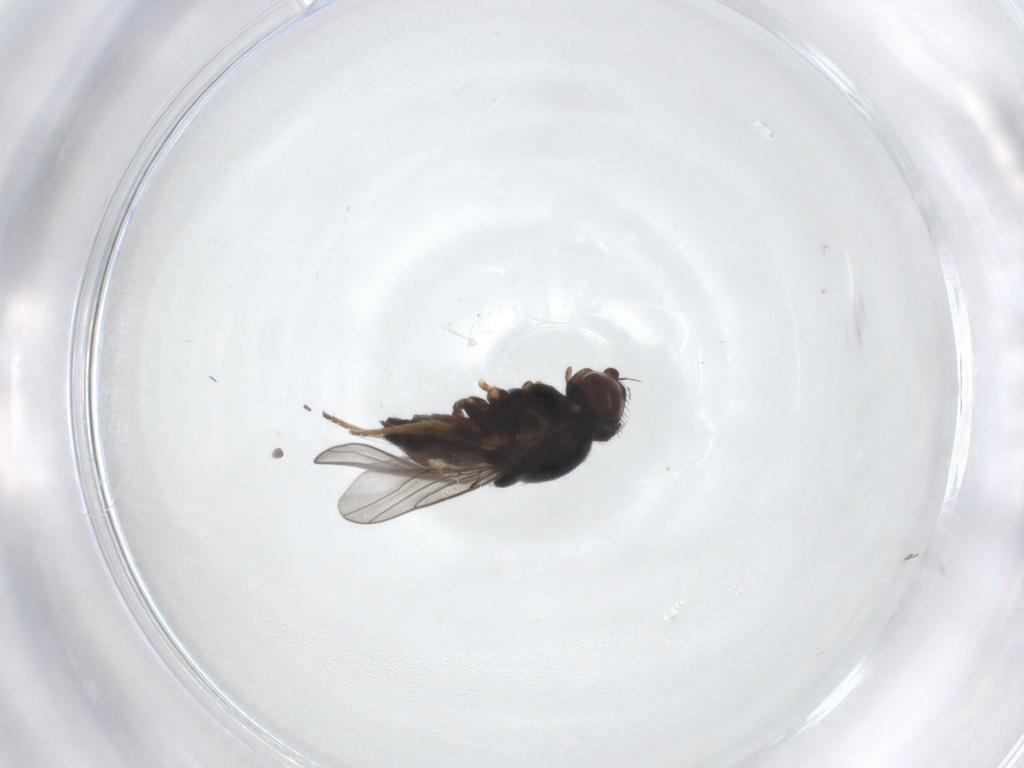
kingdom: Animalia
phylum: Arthropoda
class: Insecta
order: Diptera
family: Chloropidae
